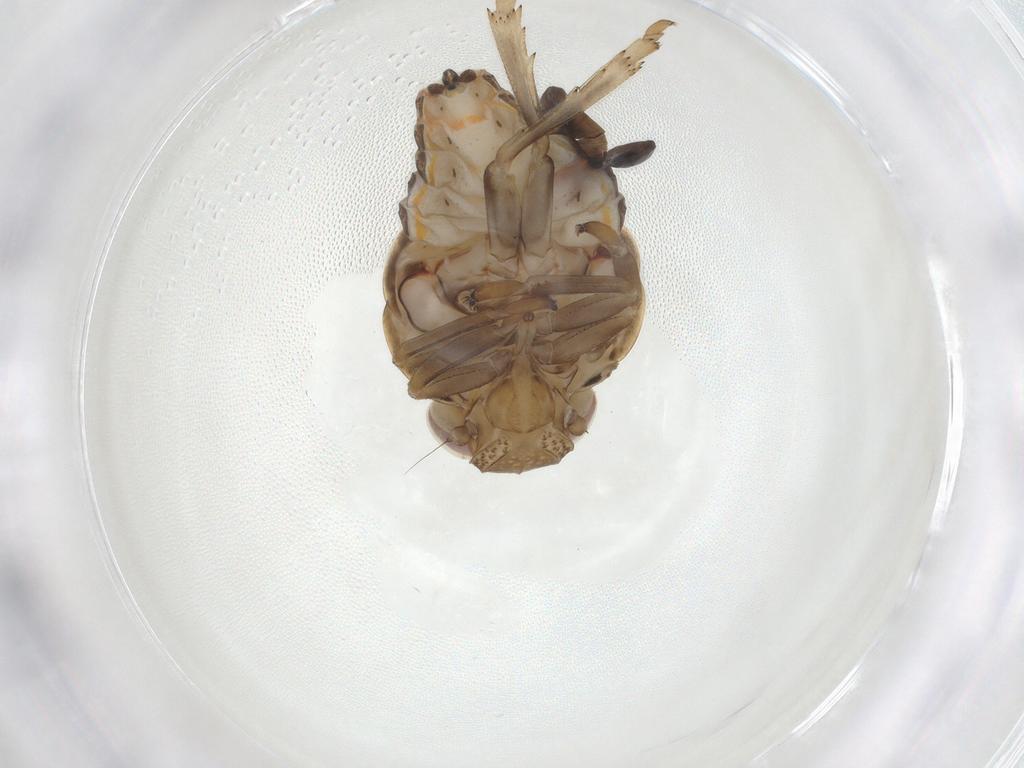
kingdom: Animalia
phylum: Arthropoda
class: Insecta
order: Hemiptera
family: Issidae
